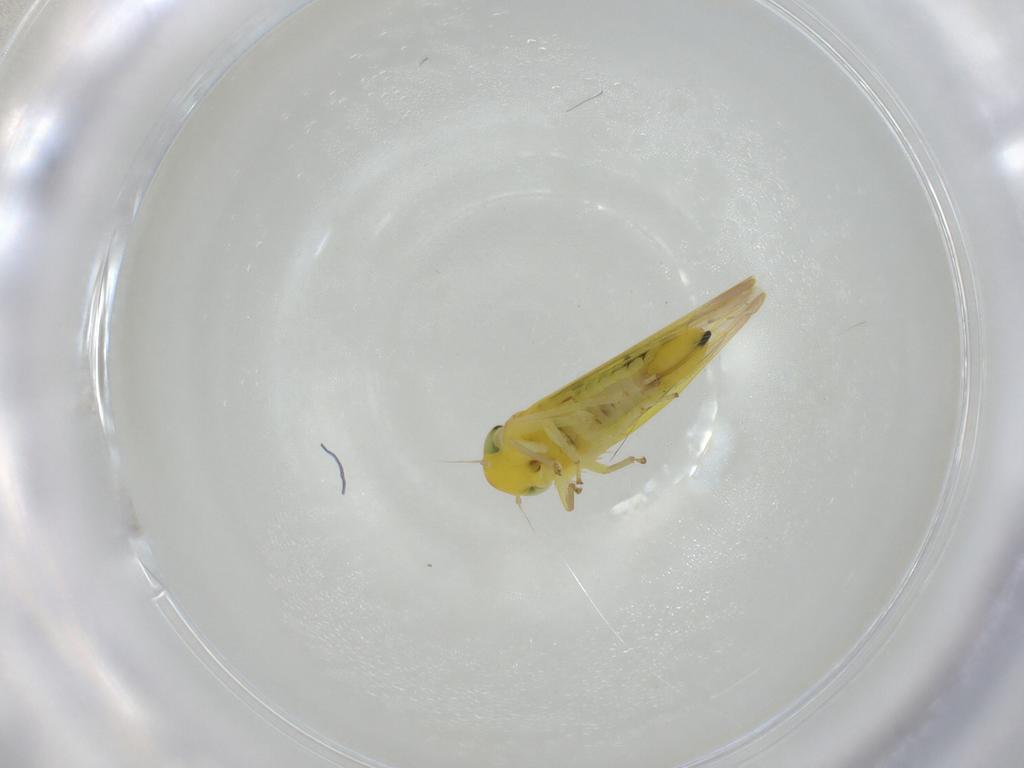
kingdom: Animalia
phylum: Arthropoda
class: Insecta
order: Hemiptera
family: Cicadellidae
